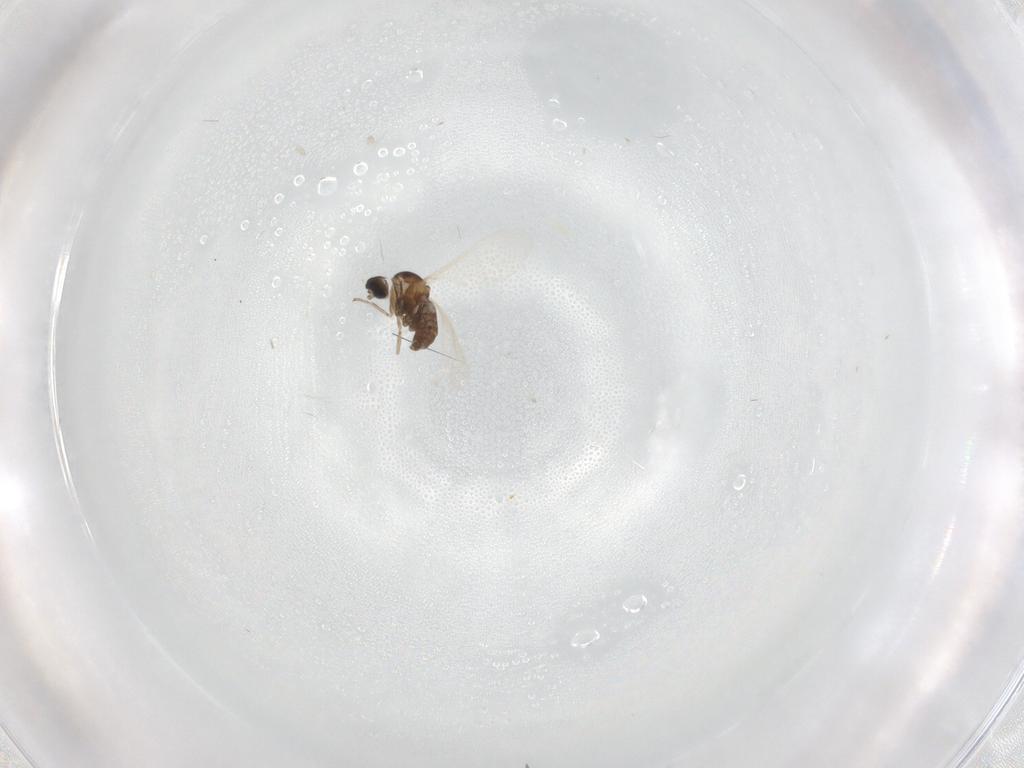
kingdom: Animalia
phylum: Arthropoda
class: Insecta
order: Diptera
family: Cecidomyiidae
